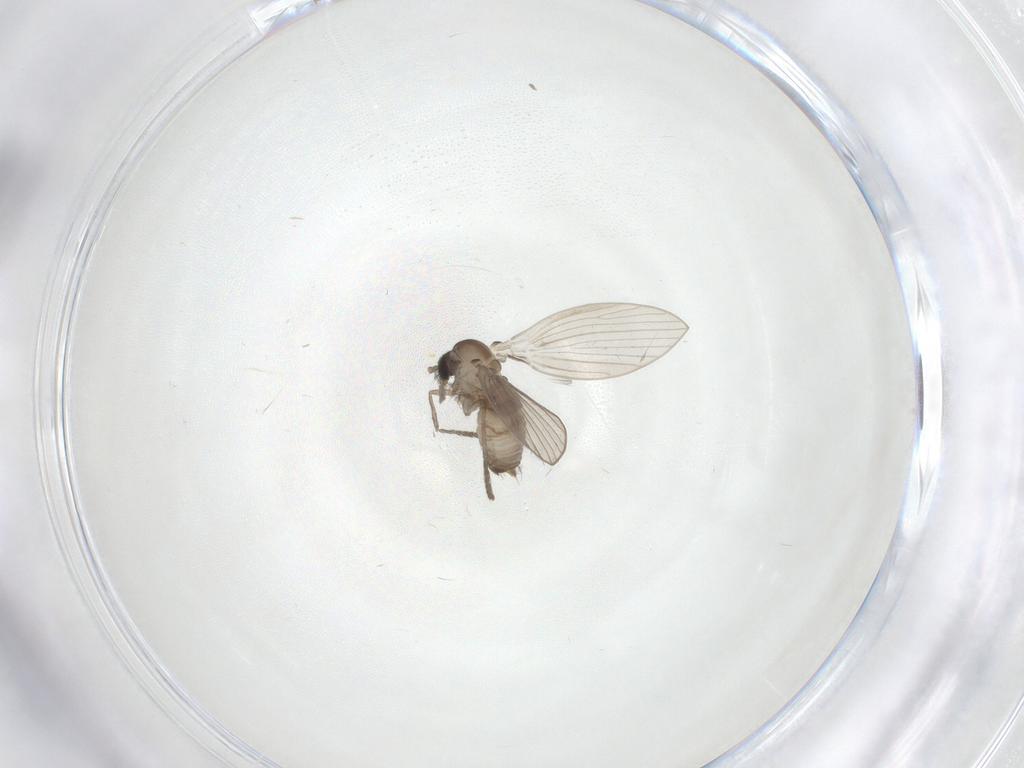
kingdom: Animalia
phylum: Arthropoda
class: Insecta
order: Diptera
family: Psychodidae
